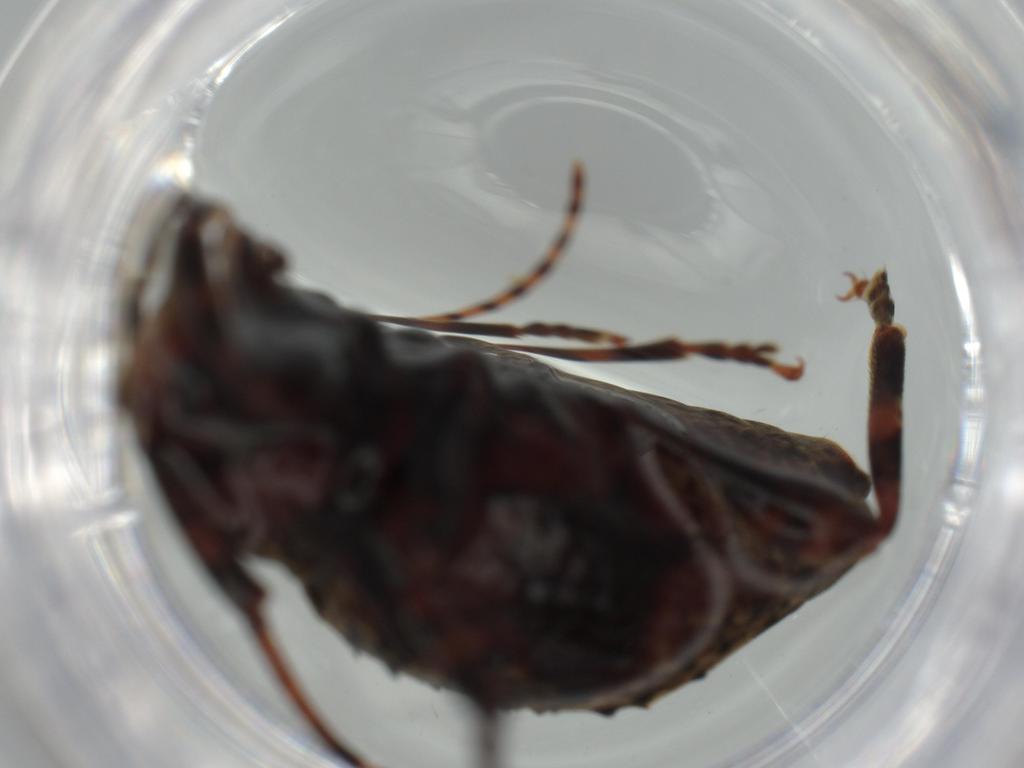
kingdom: Animalia
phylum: Arthropoda
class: Insecta
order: Coleoptera
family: Cerambycidae
